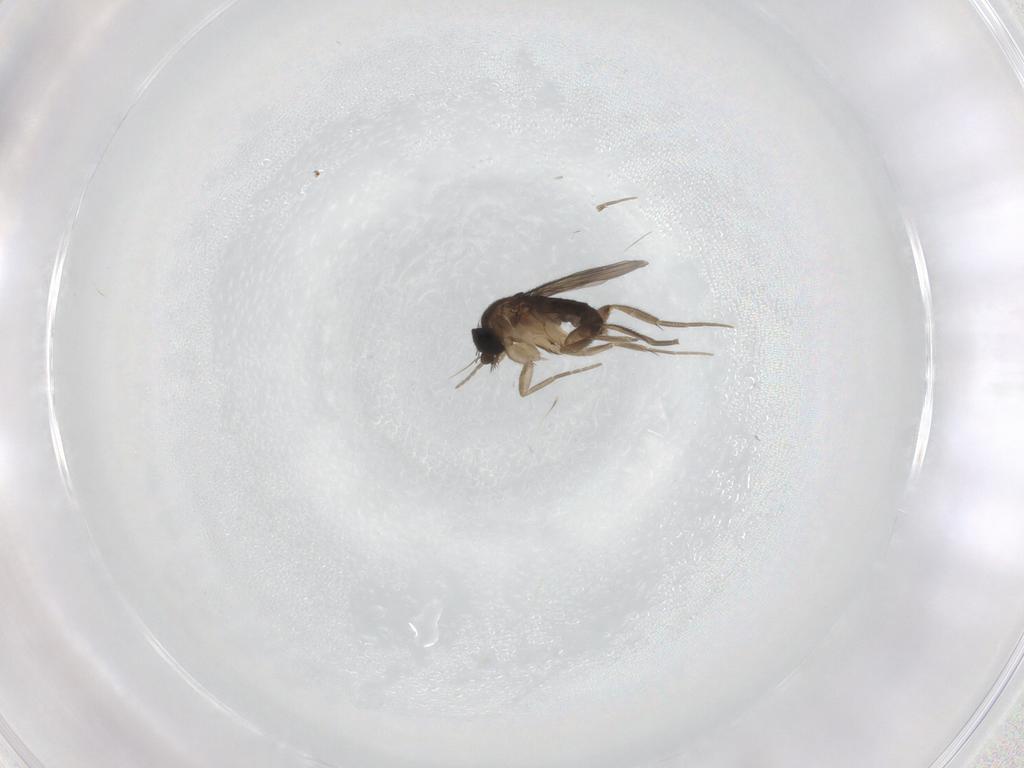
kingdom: Animalia
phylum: Arthropoda
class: Insecta
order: Diptera
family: Phoridae
